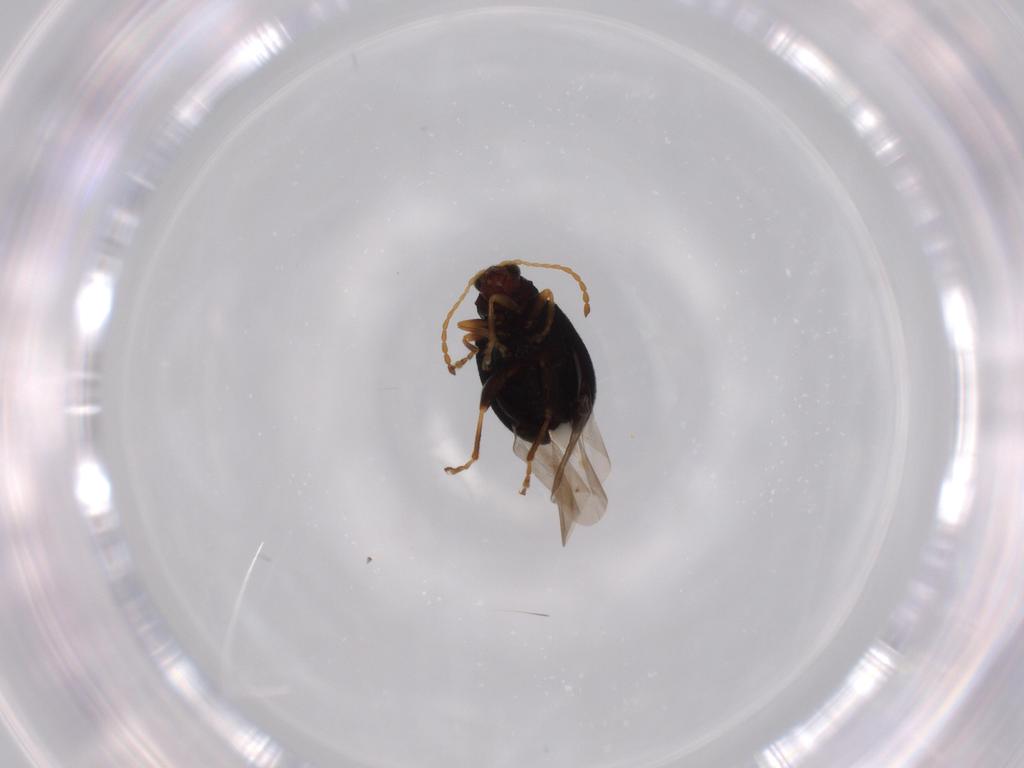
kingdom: Animalia
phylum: Arthropoda
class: Insecta
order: Coleoptera
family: Chrysomelidae
